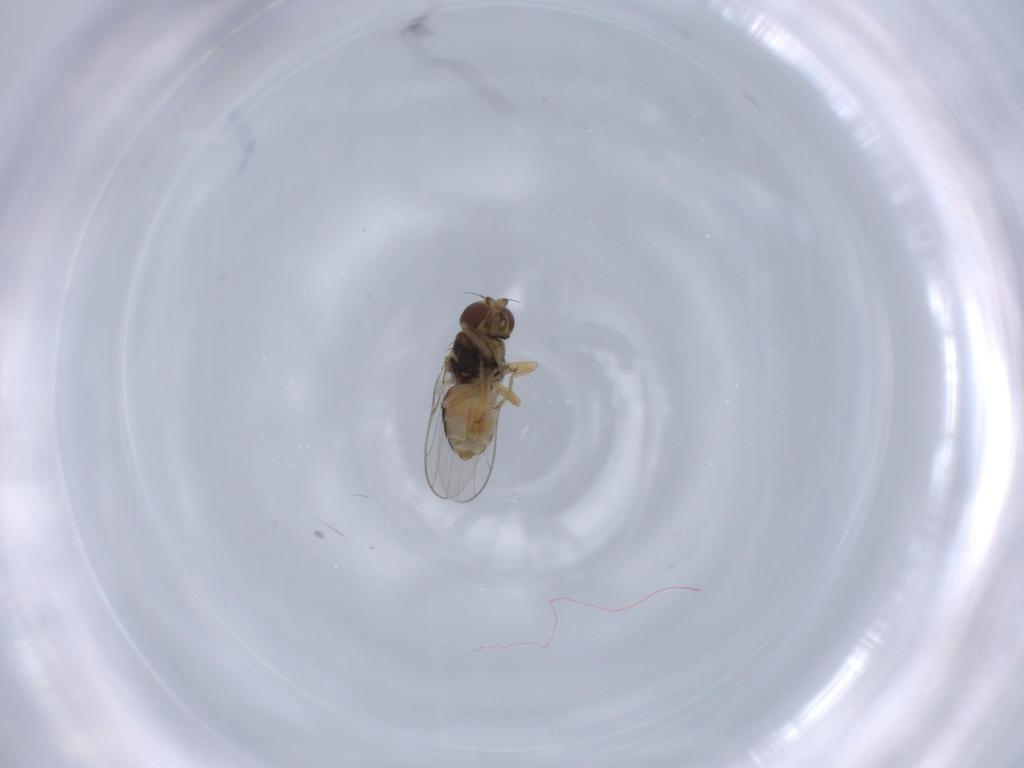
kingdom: Animalia
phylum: Arthropoda
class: Insecta
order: Diptera
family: Chloropidae
